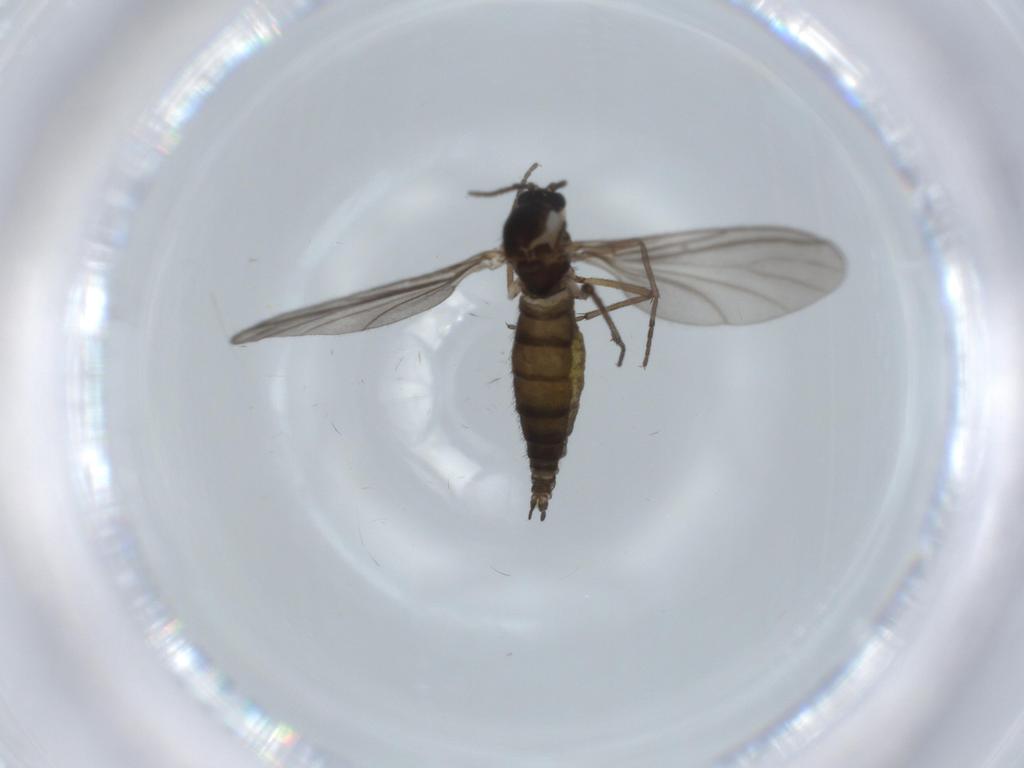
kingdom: Animalia
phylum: Arthropoda
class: Insecta
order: Diptera
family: Sciaridae
